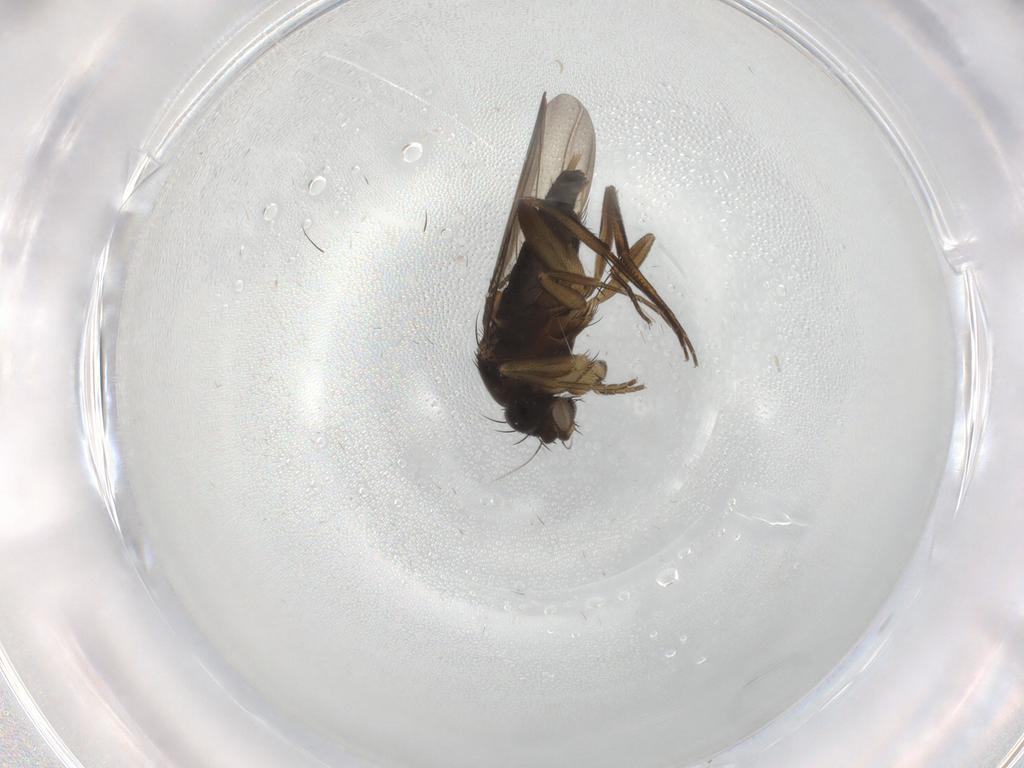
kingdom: Animalia
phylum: Arthropoda
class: Insecta
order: Diptera
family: Phoridae
